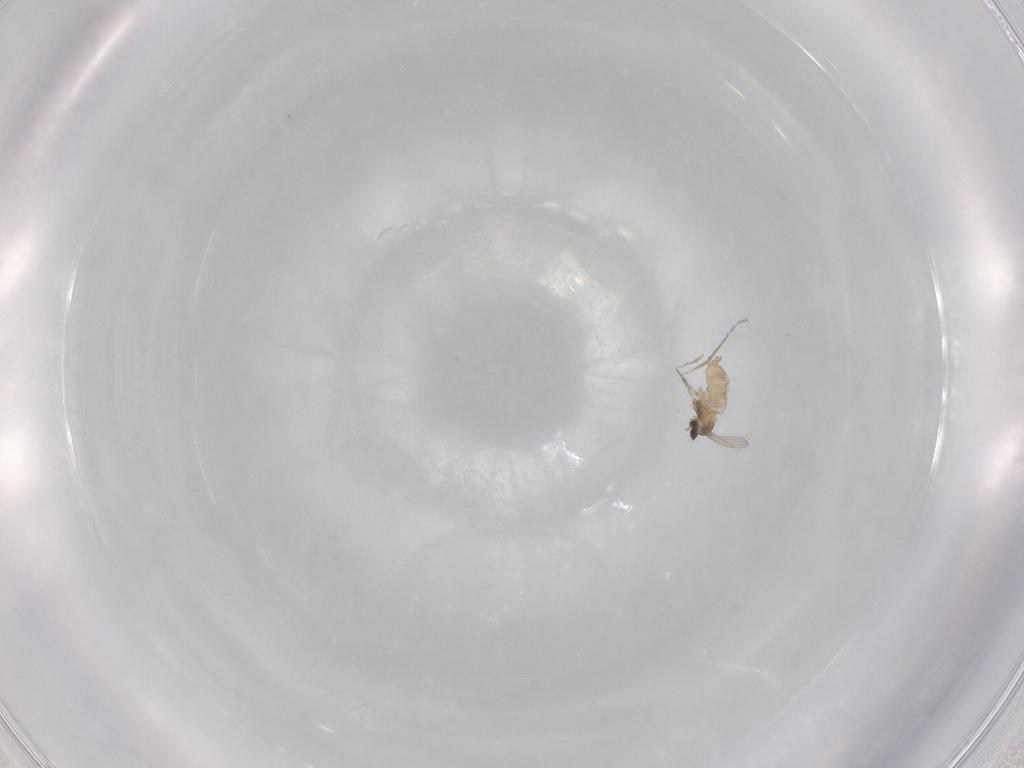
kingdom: Animalia
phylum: Arthropoda
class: Insecta
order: Diptera
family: Cecidomyiidae
